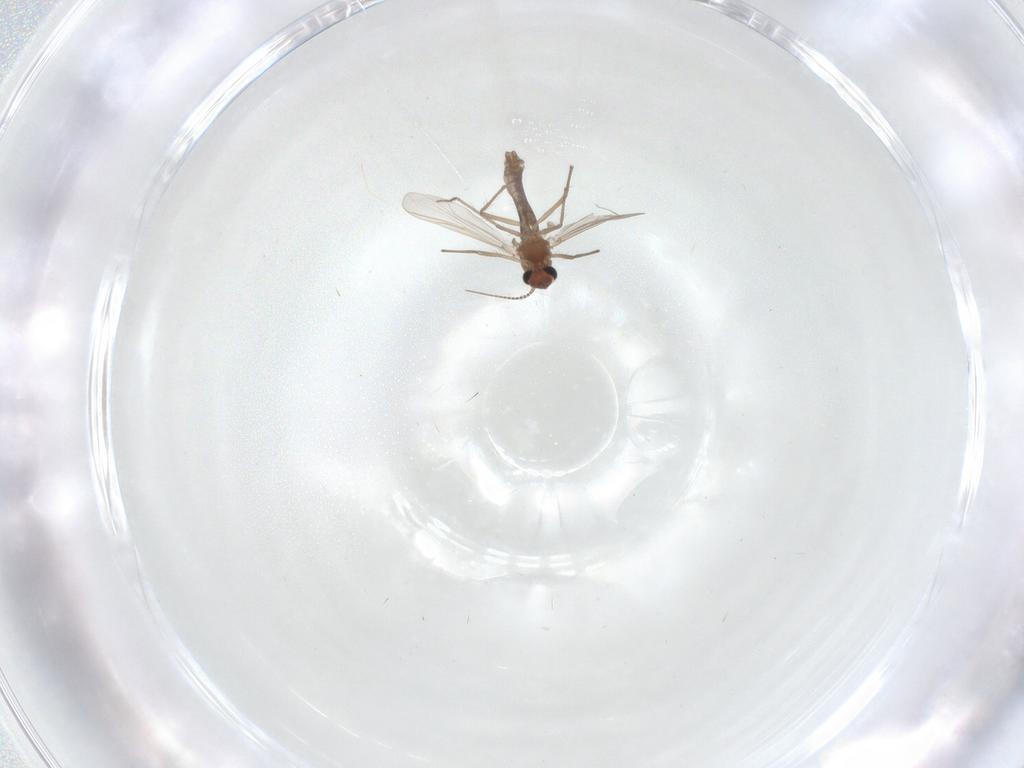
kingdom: Animalia
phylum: Arthropoda
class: Insecta
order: Diptera
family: Chironomidae
